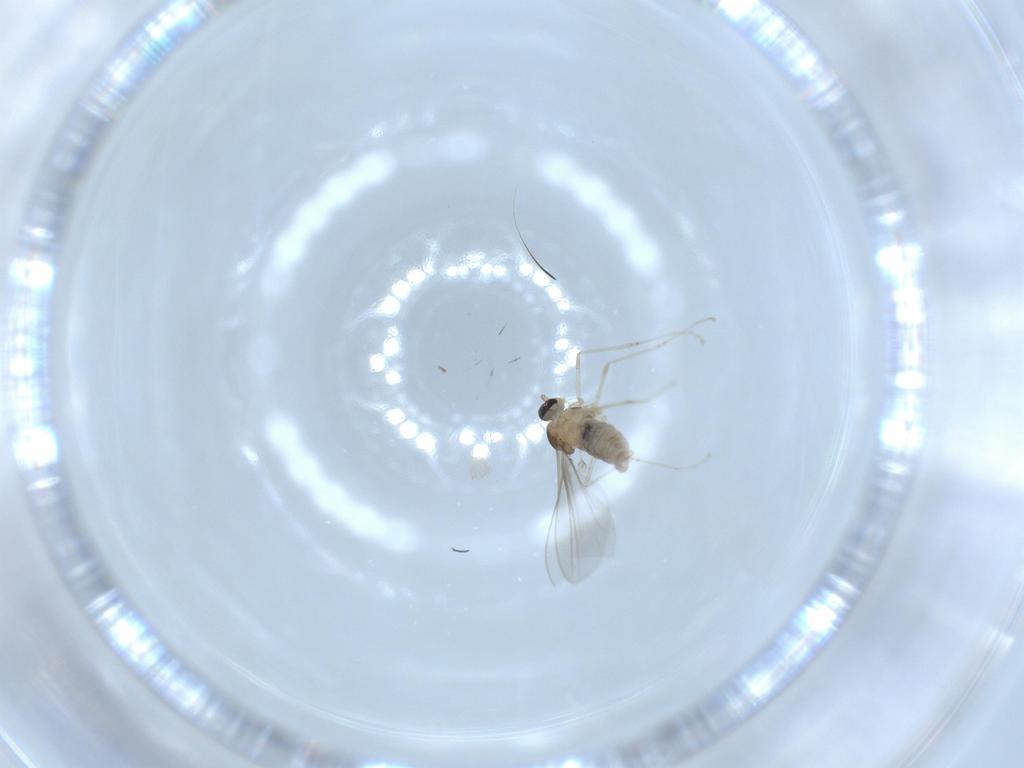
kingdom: Animalia
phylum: Arthropoda
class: Insecta
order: Diptera
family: Cecidomyiidae
